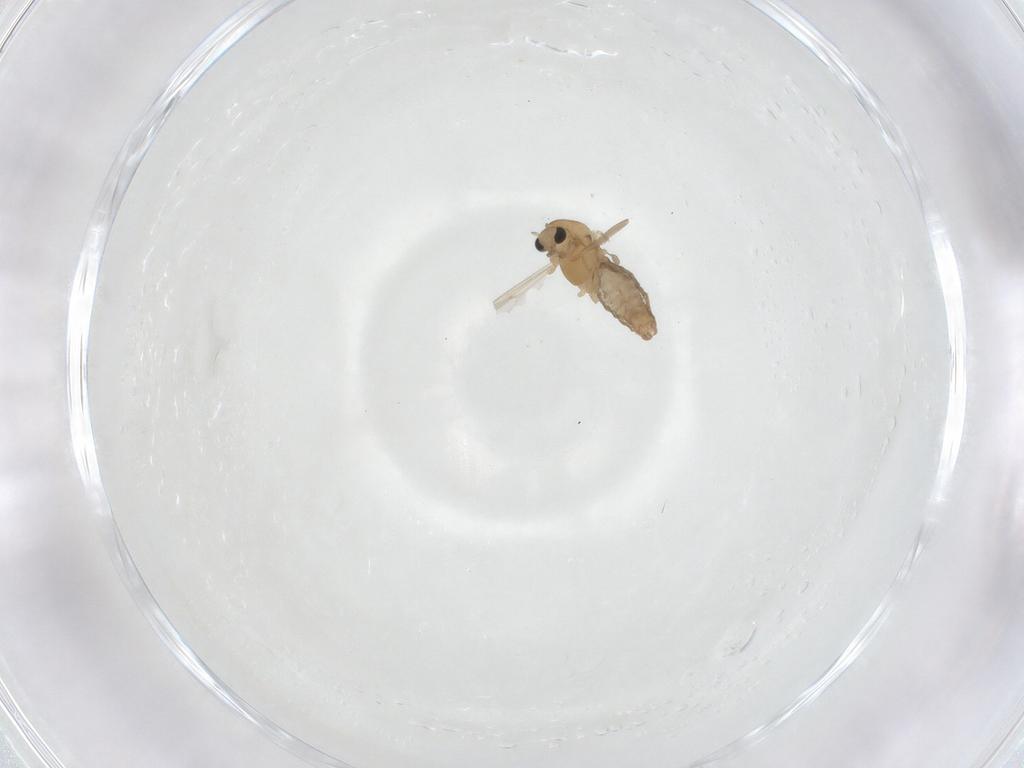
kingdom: Animalia
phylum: Arthropoda
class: Insecta
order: Diptera
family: Chironomidae
